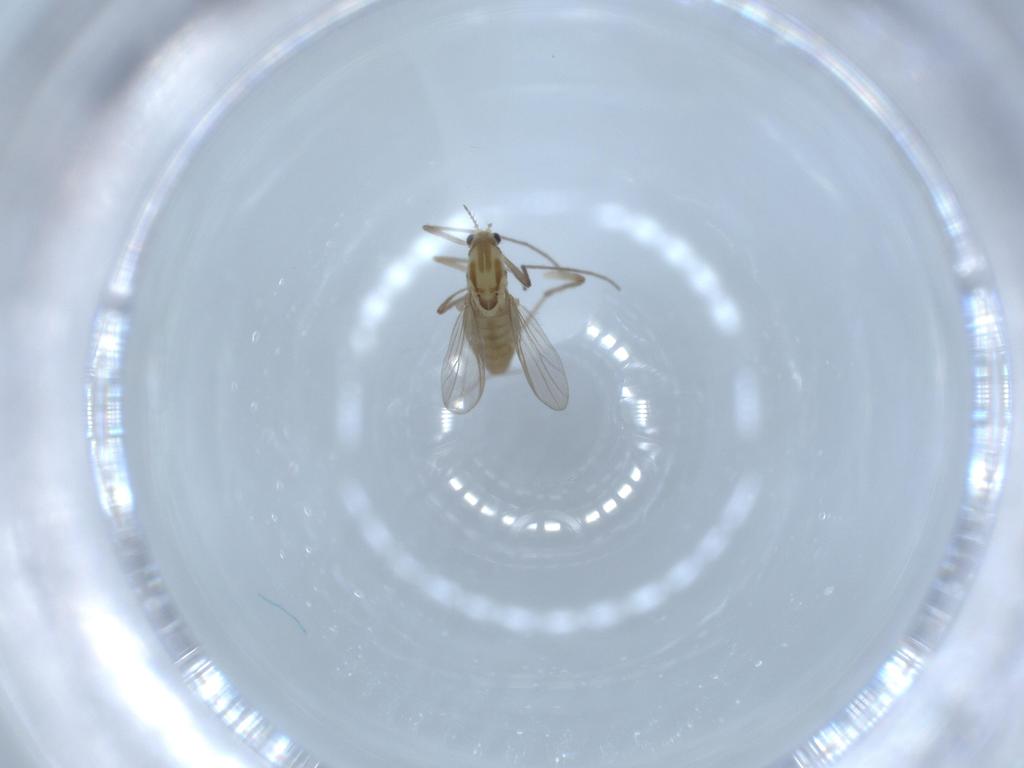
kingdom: Animalia
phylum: Arthropoda
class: Insecta
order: Diptera
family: Chironomidae
